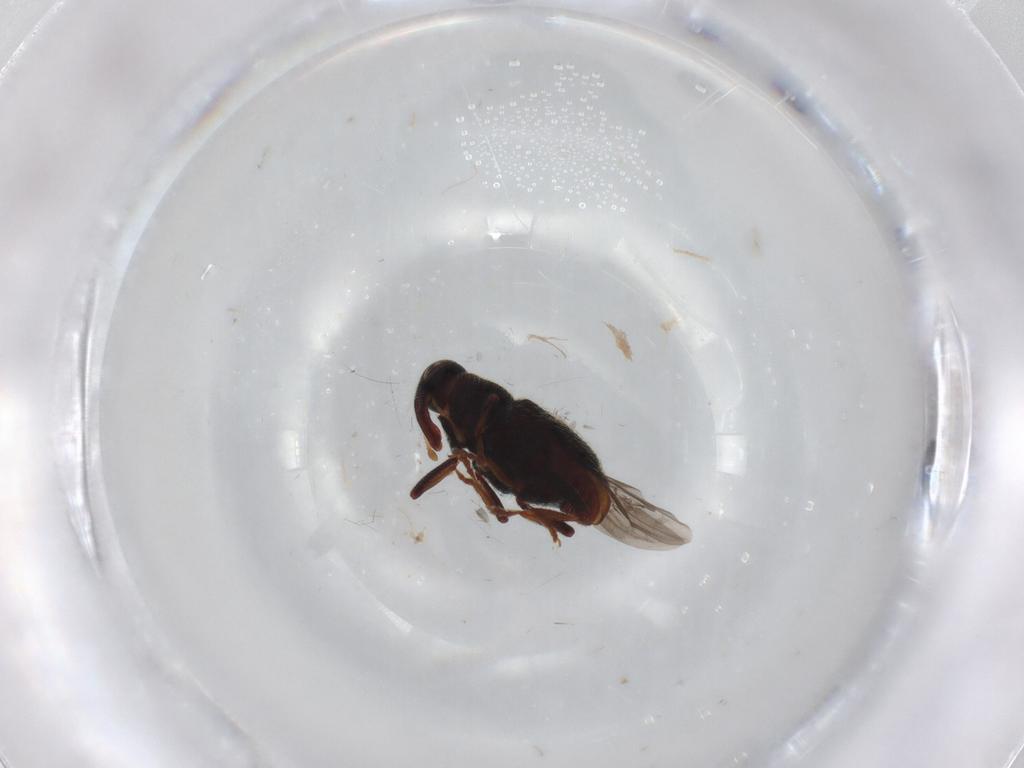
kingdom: Animalia
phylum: Arthropoda
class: Insecta
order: Coleoptera
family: Curculionidae
